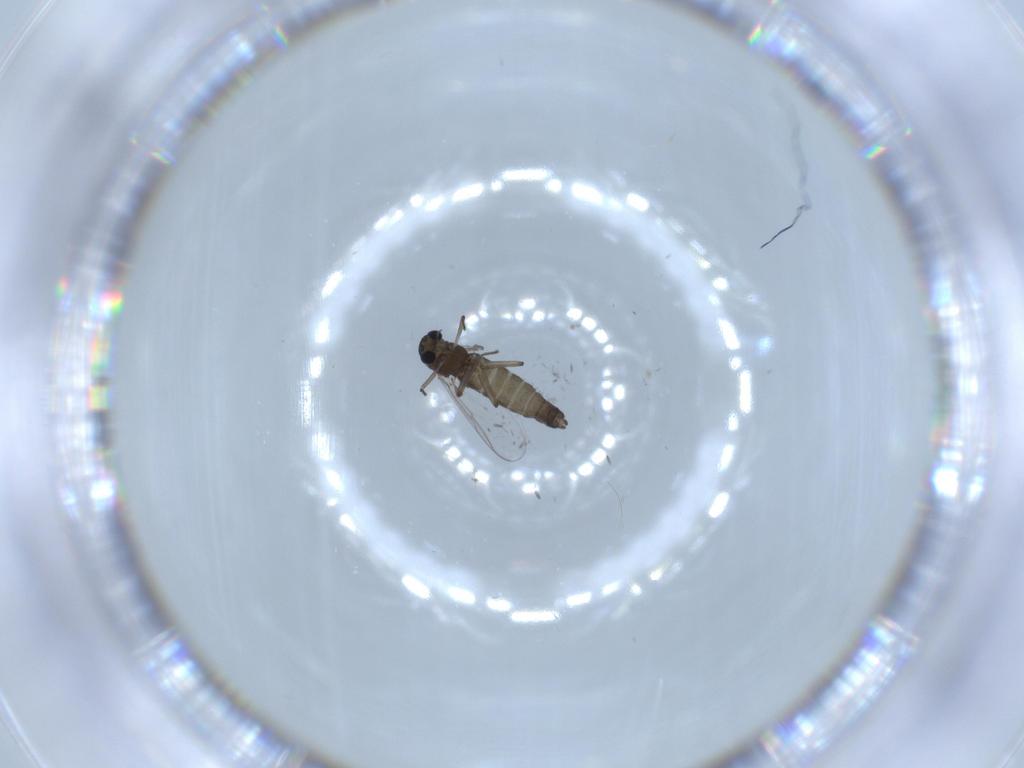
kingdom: Animalia
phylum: Arthropoda
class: Insecta
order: Diptera
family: Chironomidae
